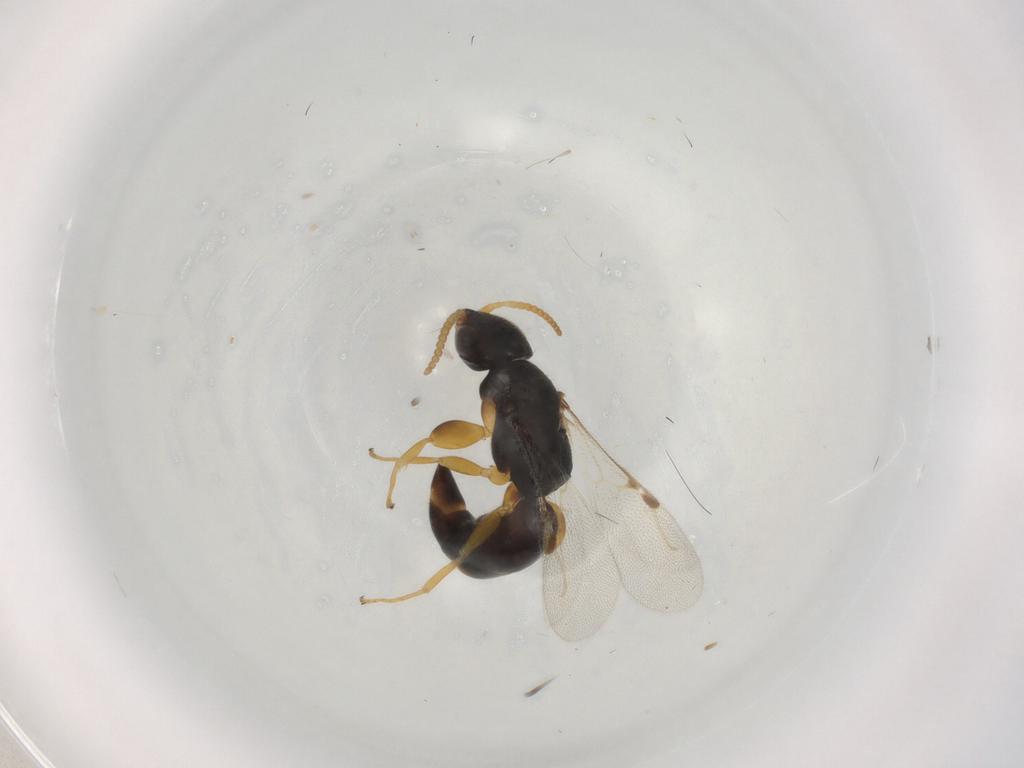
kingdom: Animalia
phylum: Arthropoda
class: Insecta
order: Hymenoptera
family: Bethylidae
